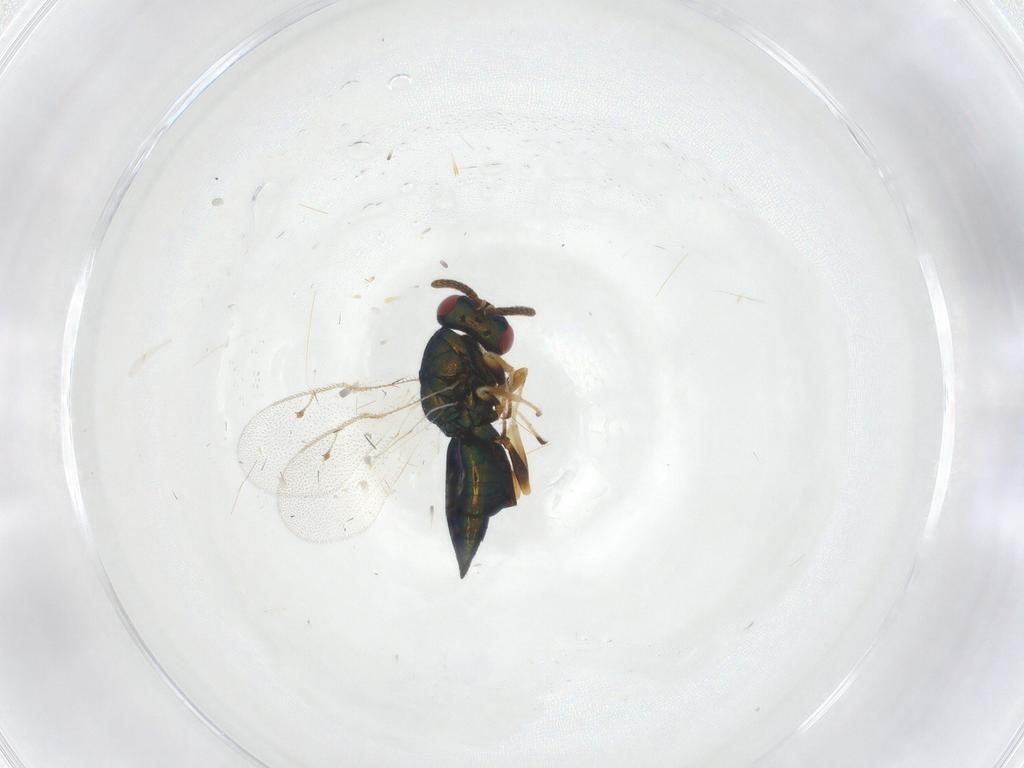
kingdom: Animalia
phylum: Arthropoda
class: Insecta
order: Hymenoptera
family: Pteromalidae
